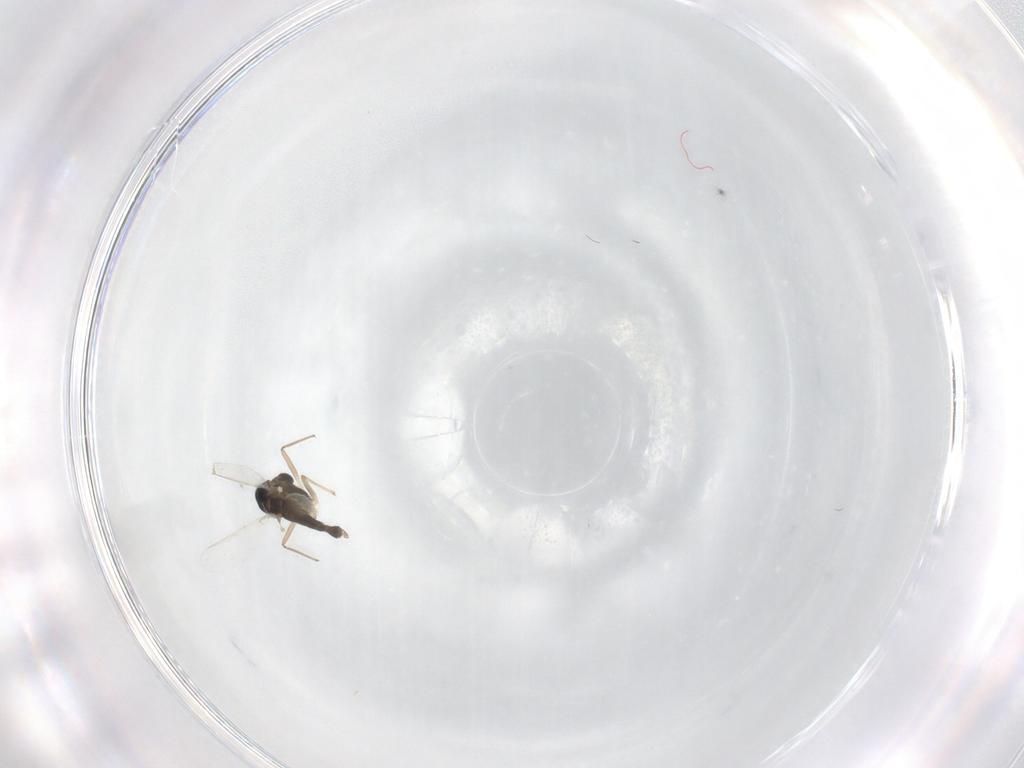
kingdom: Animalia
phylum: Arthropoda
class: Insecta
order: Diptera
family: Chironomidae
